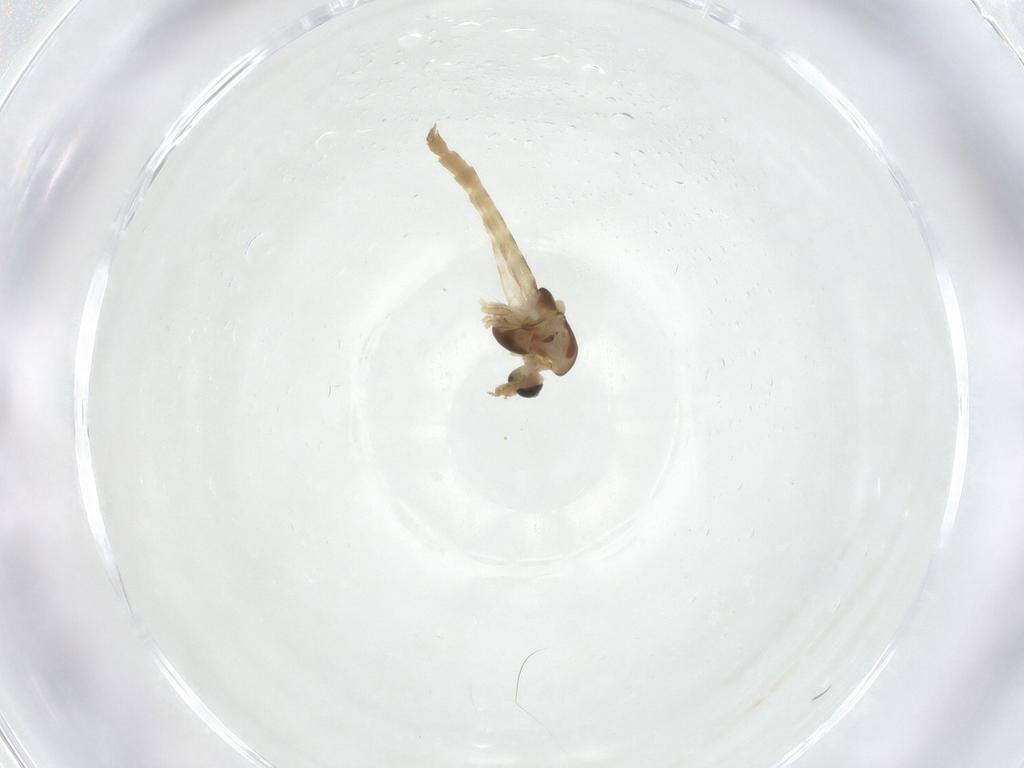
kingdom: Animalia
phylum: Arthropoda
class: Insecta
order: Diptera
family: Chironomidae
